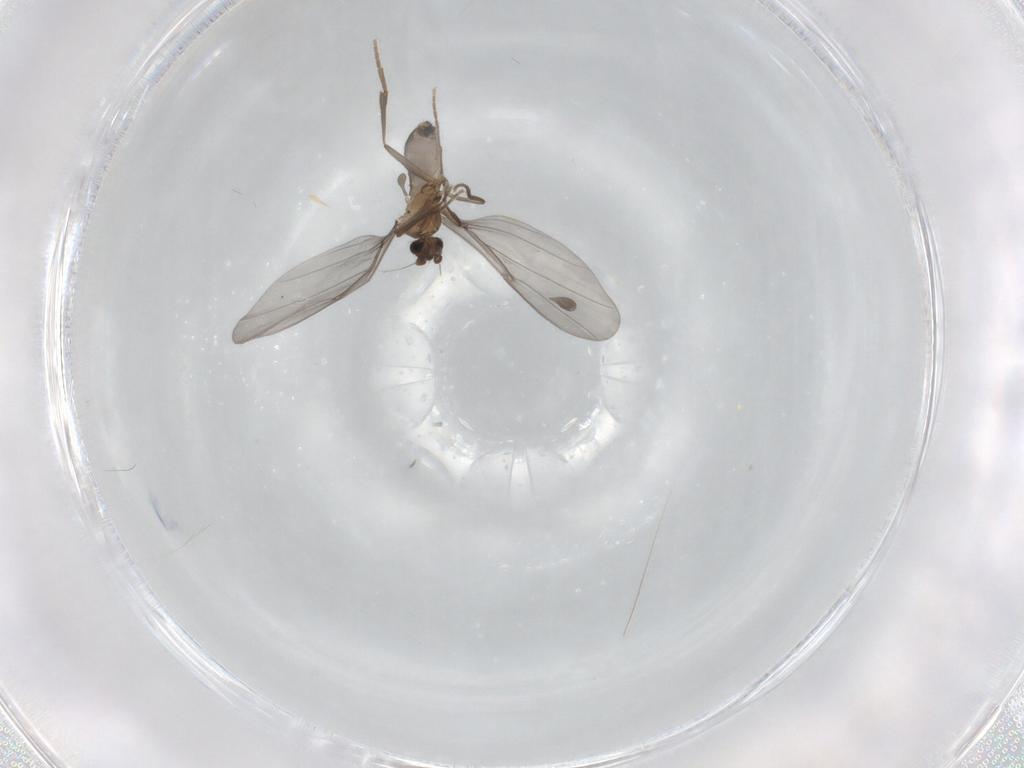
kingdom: Animalia
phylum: Arthropoda
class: Insecta
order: Diptera
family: Phoridae
